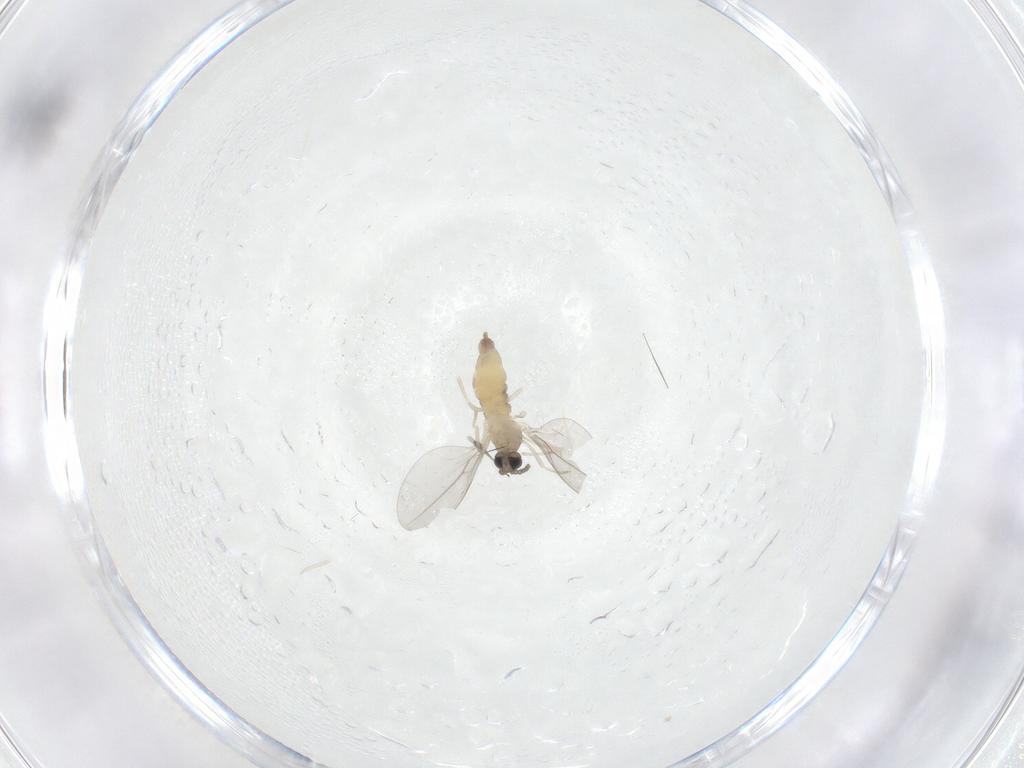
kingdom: Animalia
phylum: Arthropoda
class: Insecta
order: Diptera
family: Cecidomyiidae
